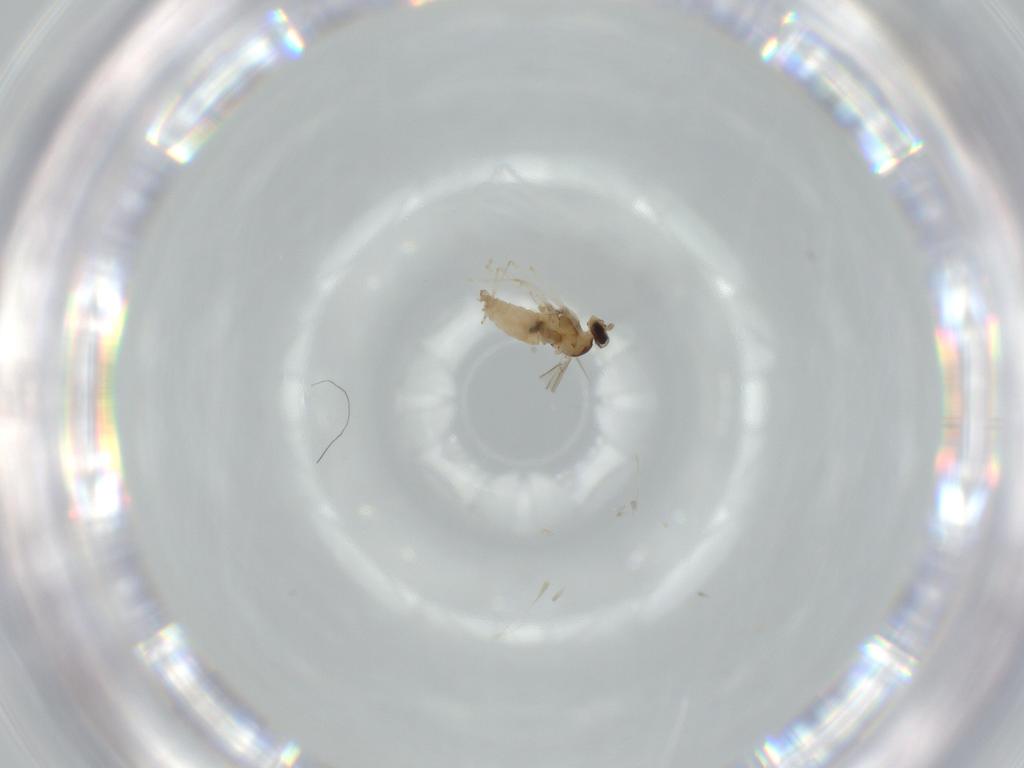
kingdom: Animalia
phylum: Arthropoda
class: Insecta
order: Diptera
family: Cecidomyiidae
